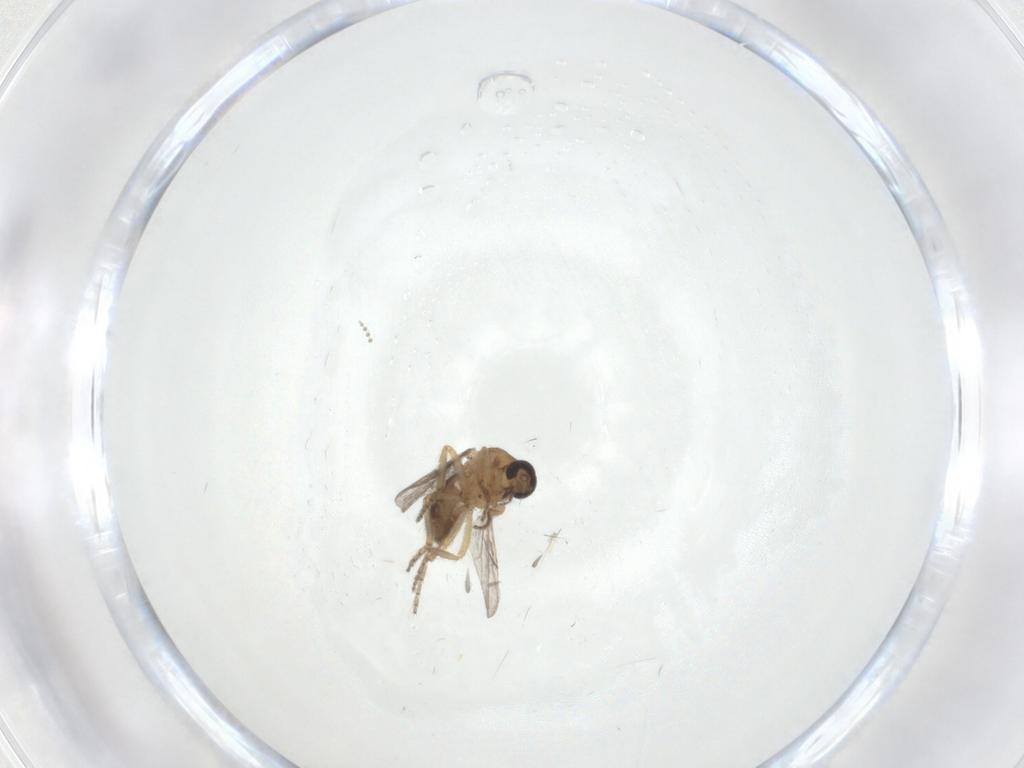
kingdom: Animalia
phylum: Arthropoda
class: Insecta
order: Diptera
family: Ceratopogonidae
